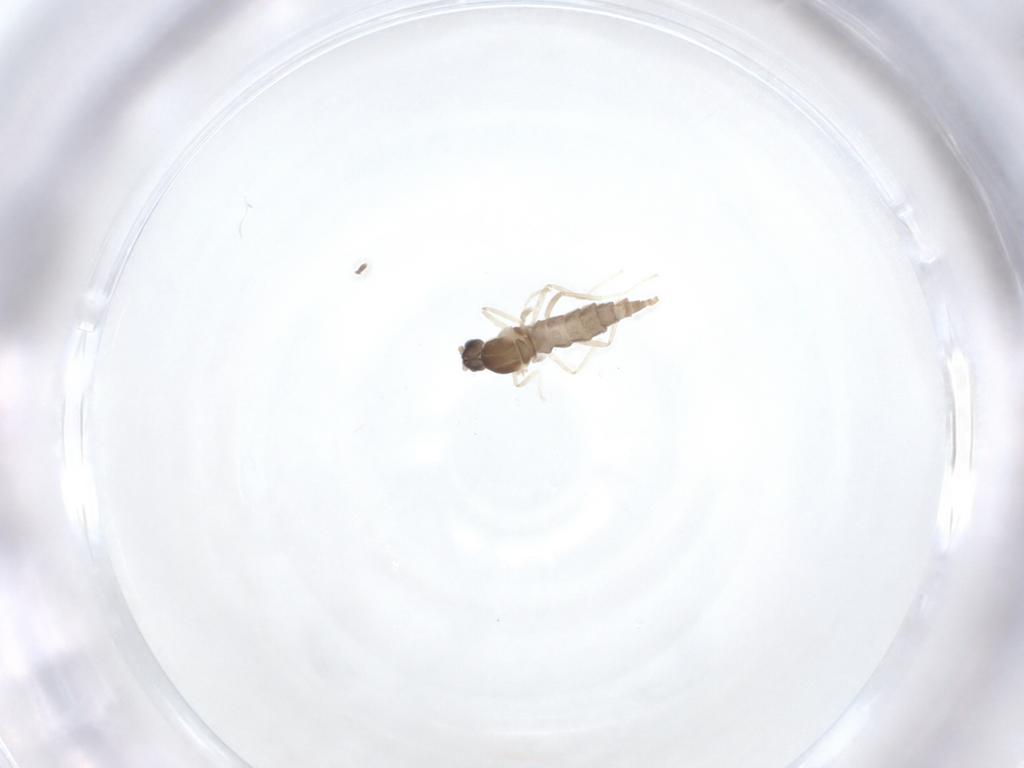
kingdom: Animalia
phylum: Arthropoda
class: Insecta
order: Diptera
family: Cecidomyiidae
